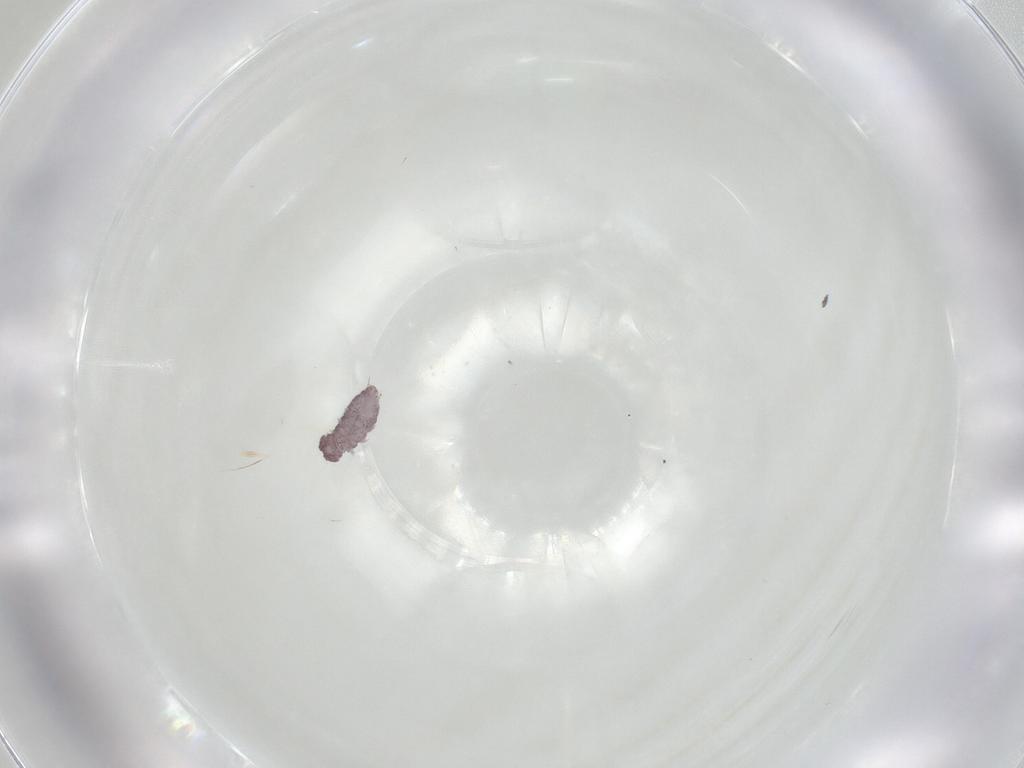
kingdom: Animalia
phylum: Arthropoda
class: Collembola
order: Poduromorpha
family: Hypogastruridae
